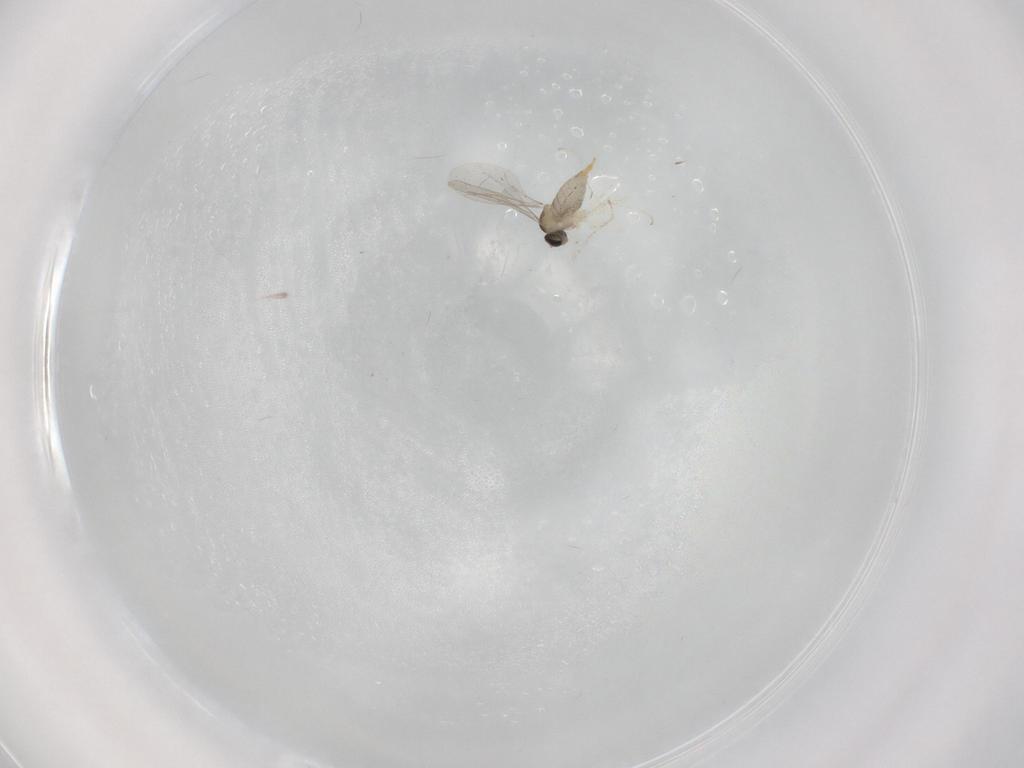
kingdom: Animalia
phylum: Arthropoda
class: Insecta
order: Diptera
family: Cecidomyiidae
